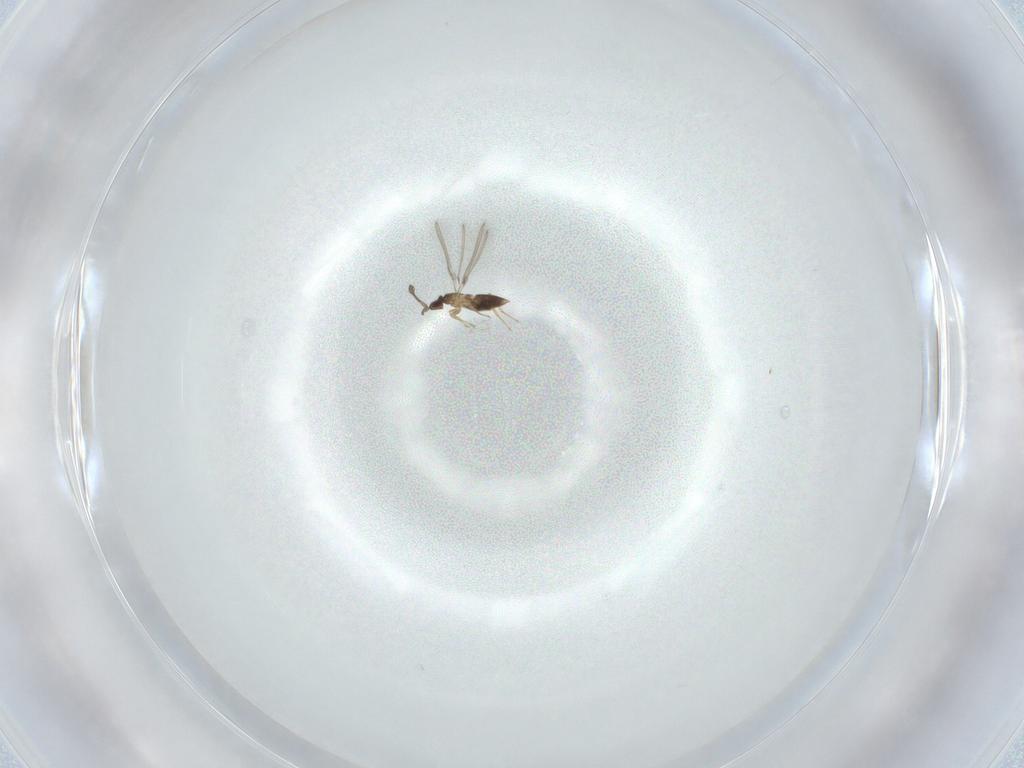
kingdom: Animalia
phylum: Arthropoda
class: Insecta
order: Hymenoptera
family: Mymaridae
